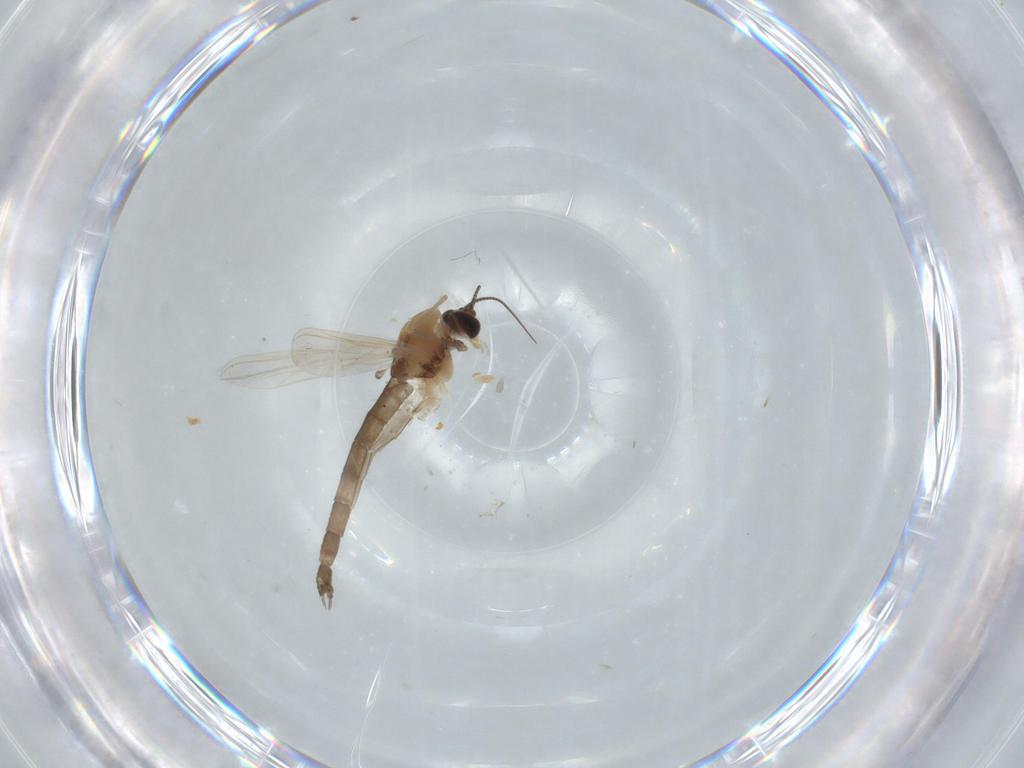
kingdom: Animalia
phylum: Arthropoda
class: Insecta
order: Diptera
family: Chironomidae
